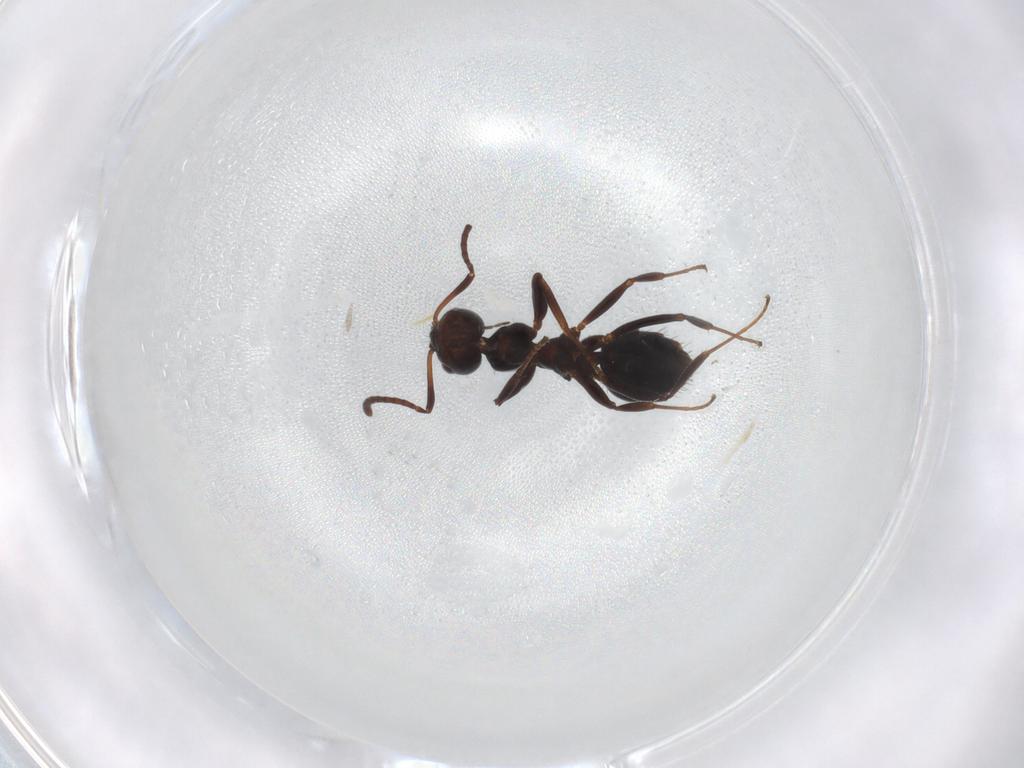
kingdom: Animalia
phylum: Arthropoda
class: Insecta
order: Hymenoptera
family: Formicidae
